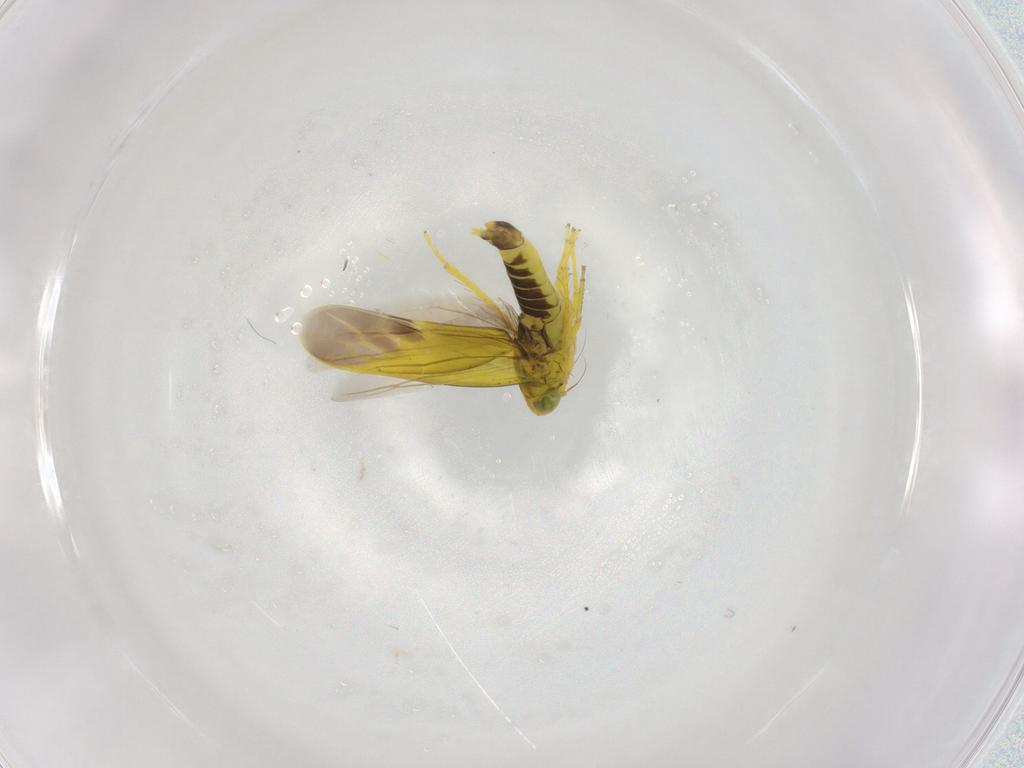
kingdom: Animalia
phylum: Arthropoda
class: Insecta
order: Hemiptera
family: Cicadellidae
